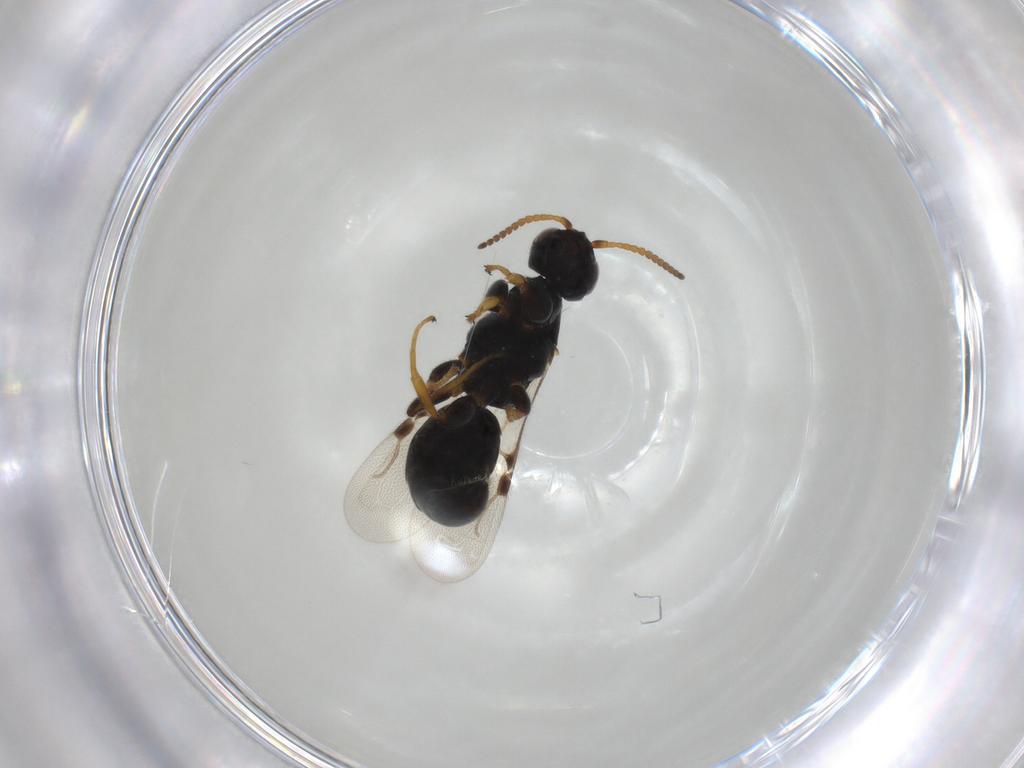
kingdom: Animalia
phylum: Arthropoda
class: Insecta
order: Hymenoptera
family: Bethylidae
